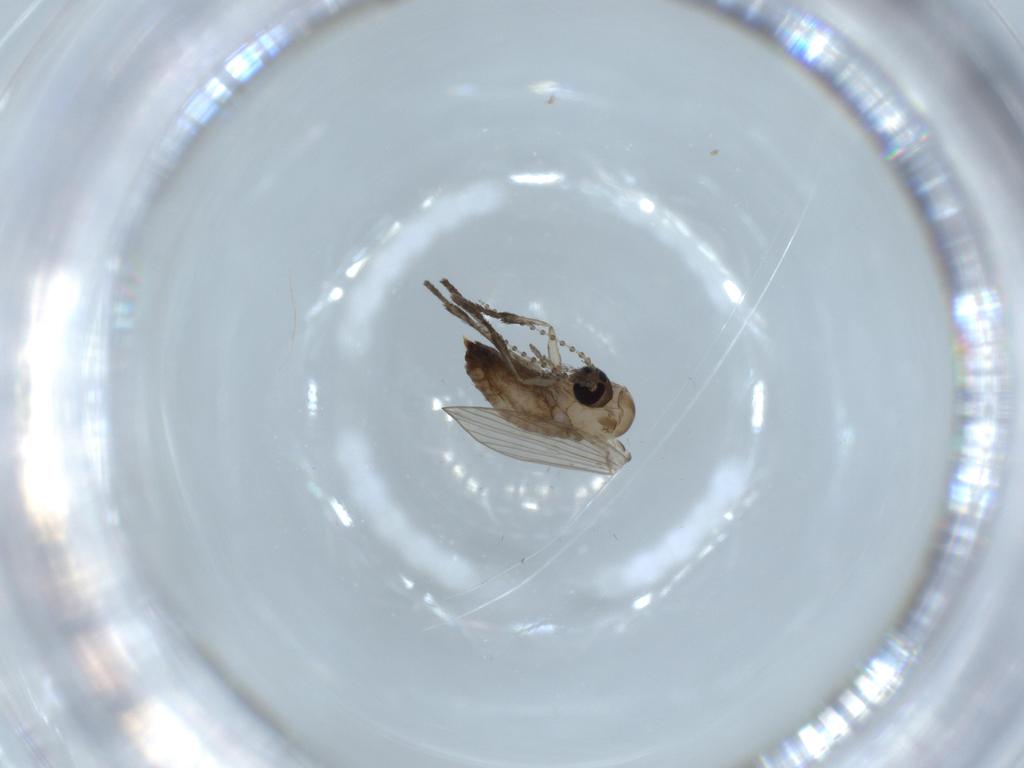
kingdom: Animalia
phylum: Arthropoda
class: Insecta
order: Diptera
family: Psychodidae
